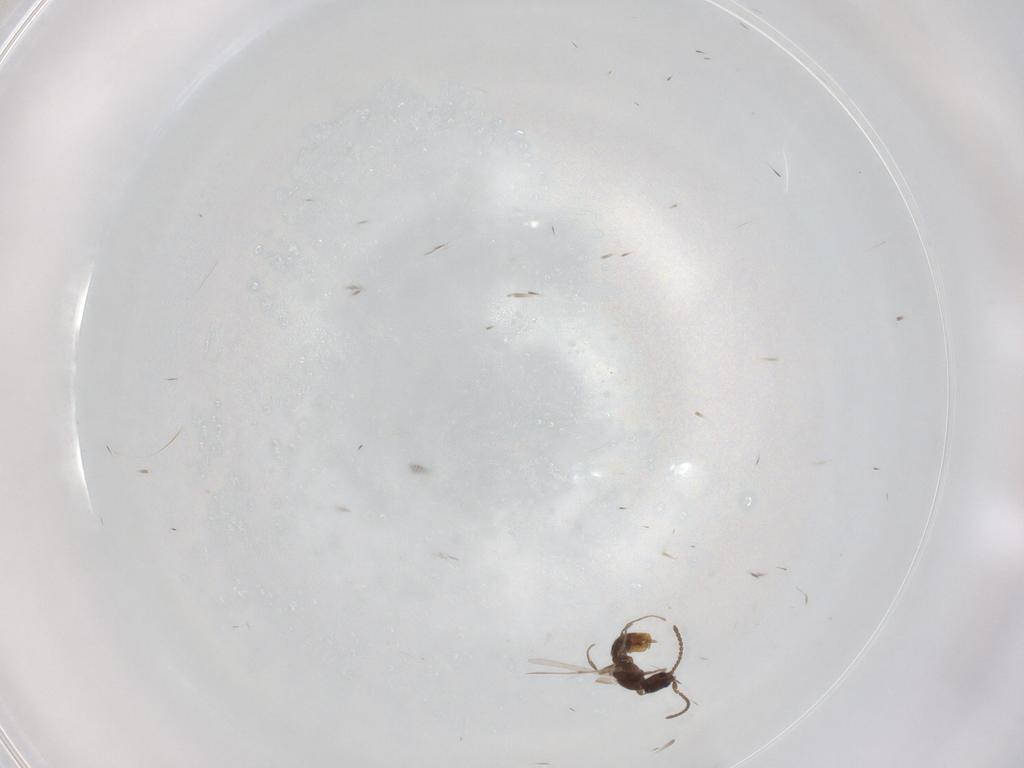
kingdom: Animalia
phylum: Arthropoda
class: Insecta
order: Hymenoptera
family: Formicidae
